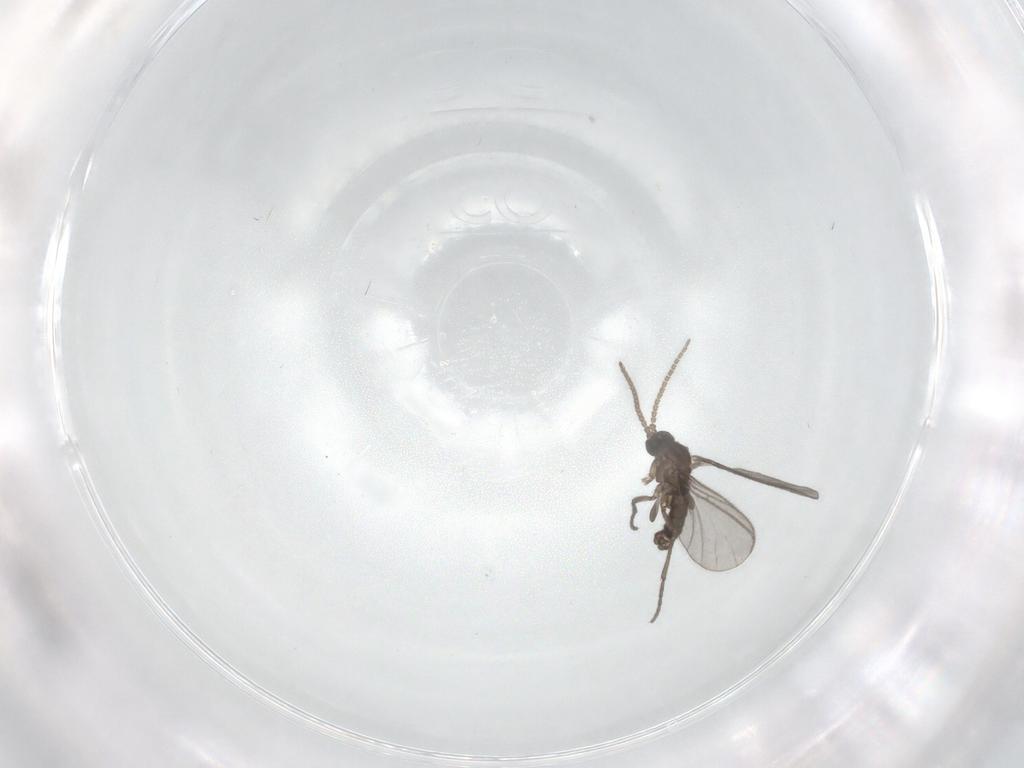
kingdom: Animalia
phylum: Arthropoda
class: Insecta
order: Diptera
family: Sciaridae
